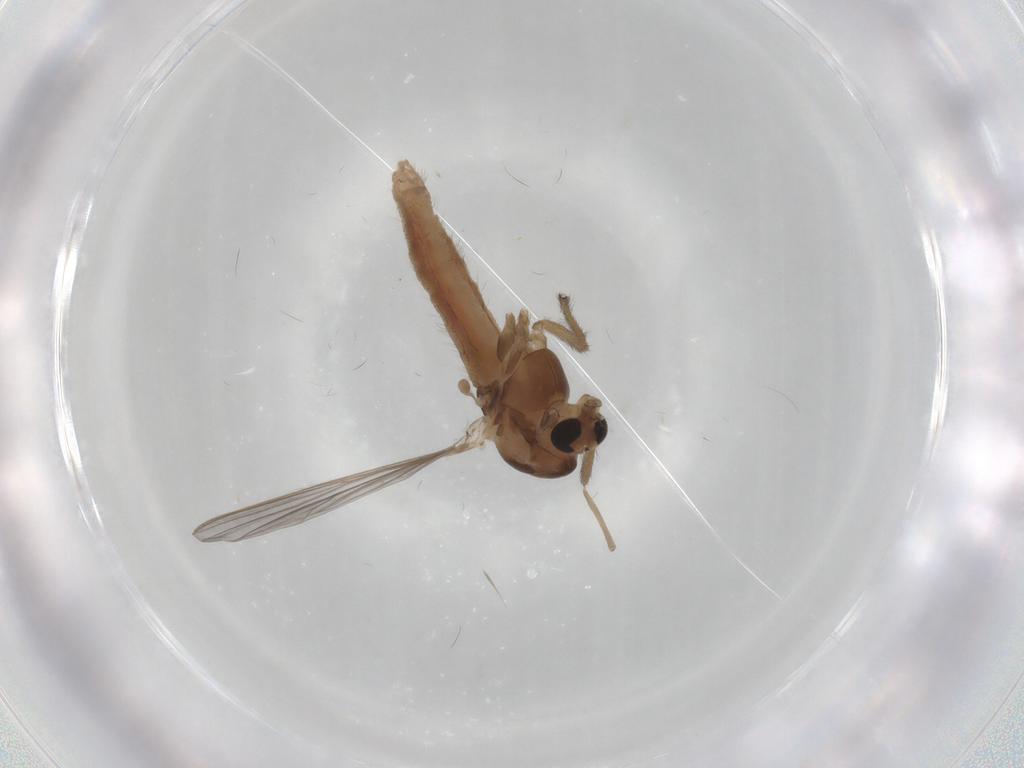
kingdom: Animalia
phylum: Arthropoda
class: Insecta
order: Diptera
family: Chironomidae
